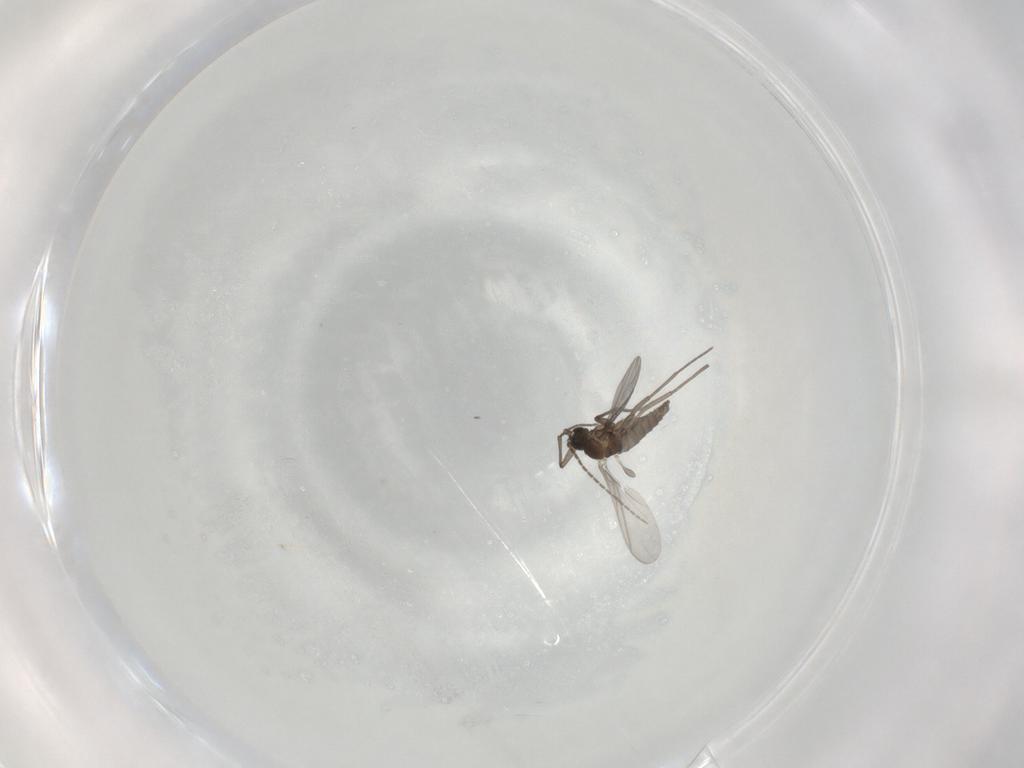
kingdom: Animalia
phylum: Arthropoda
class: Insecta
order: Diptera
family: Sciaridae
